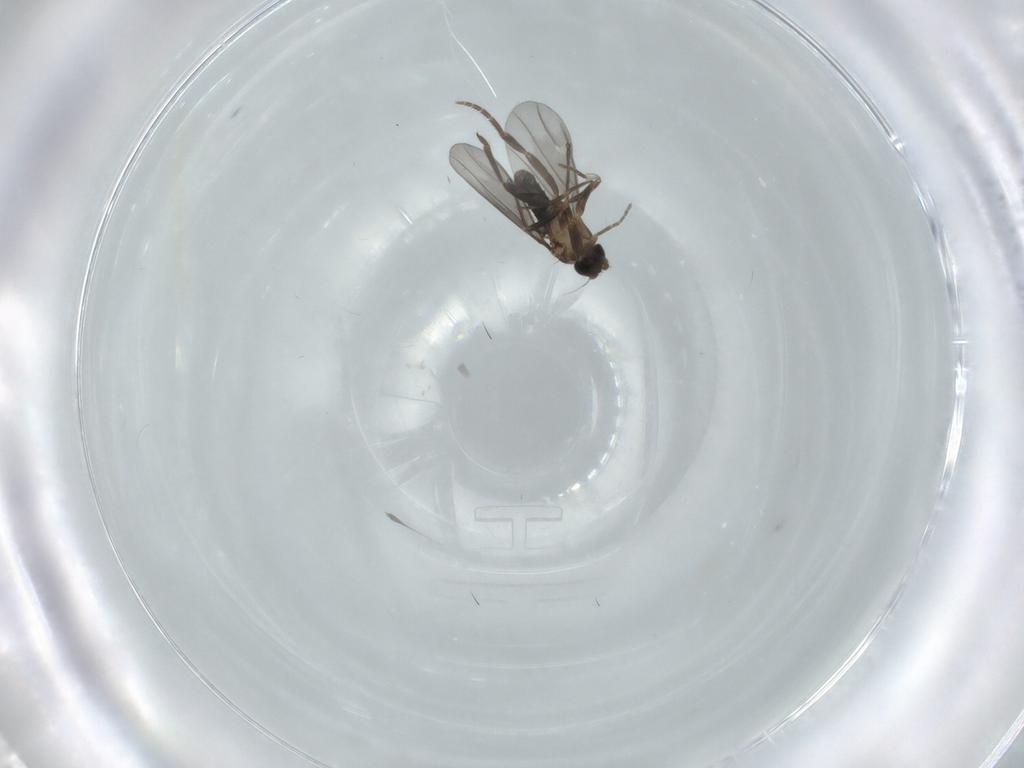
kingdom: Animalia
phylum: Arthropoda
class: Insecta
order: Diptera
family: Phoridae
